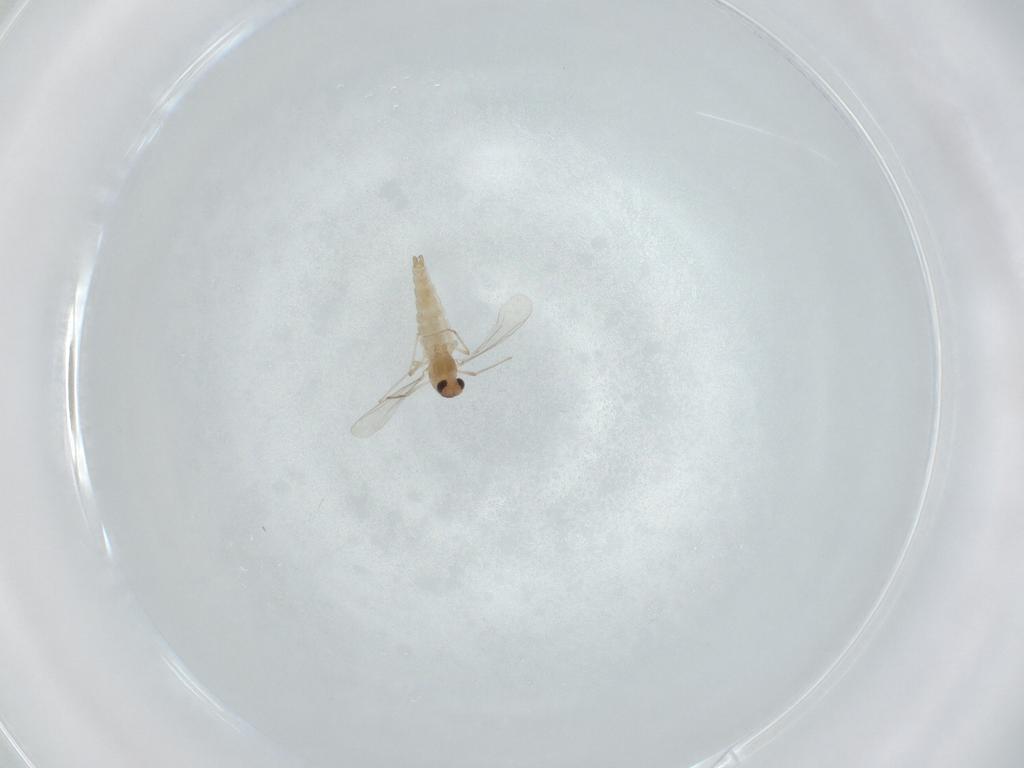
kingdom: Animalia
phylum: Arthropoda
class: Insecta
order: Diptera
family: Chironomidae
